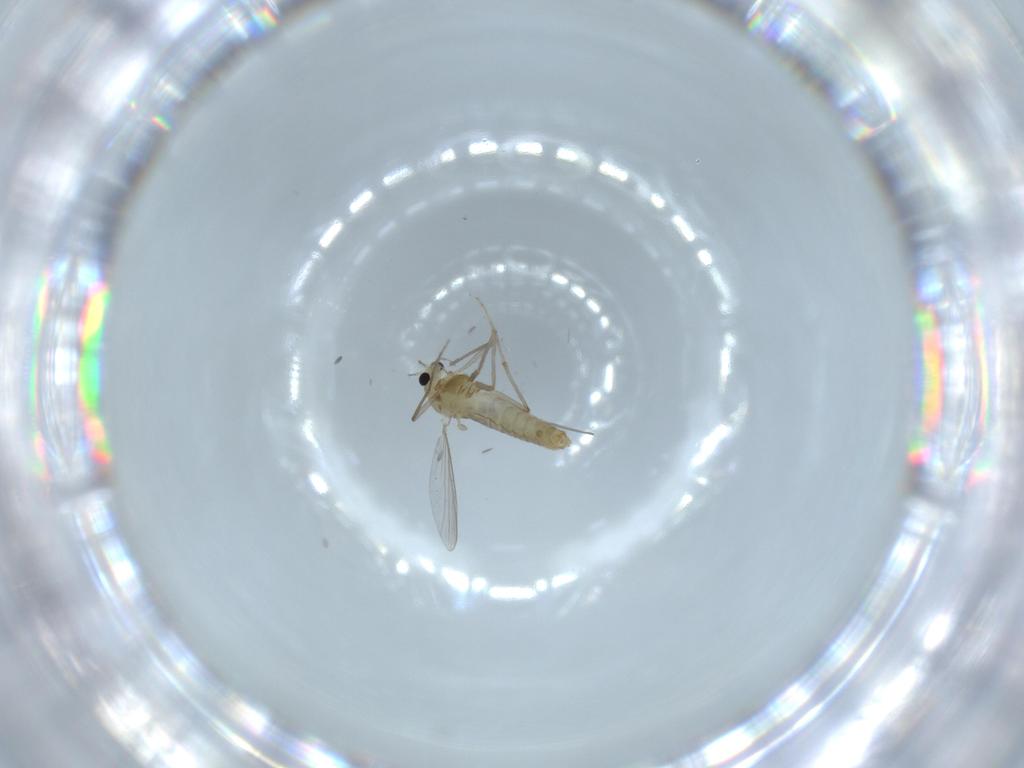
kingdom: Animalia
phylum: Arthropoda
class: Insecta
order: Diptera
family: Chironomidae
